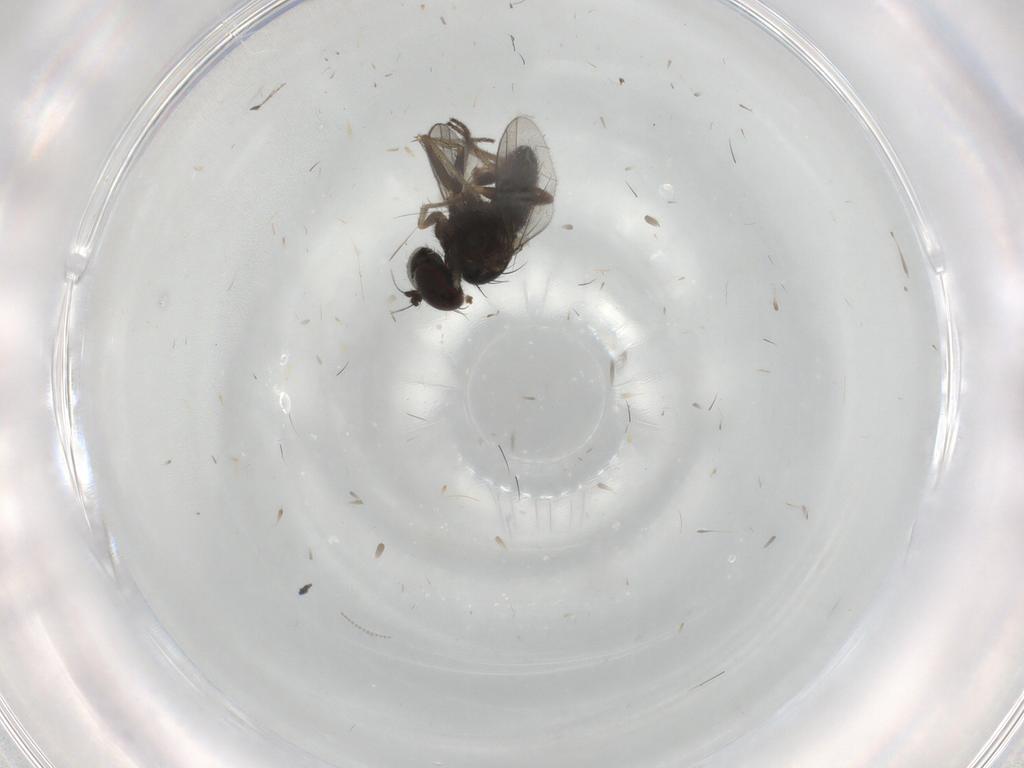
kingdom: Animalia
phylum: Arthropoda
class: Insecta
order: Diptera
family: Cecidomyiidae
